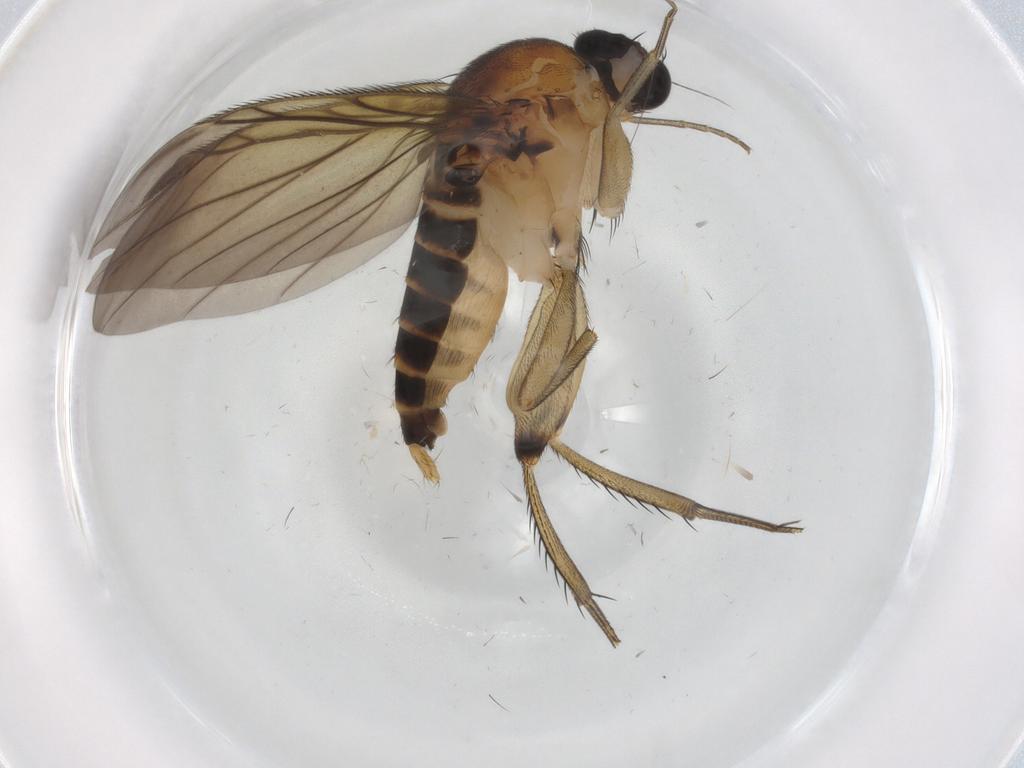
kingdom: Animalia
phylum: Arthropoda
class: Insecta
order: Diptera
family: Phoridae
